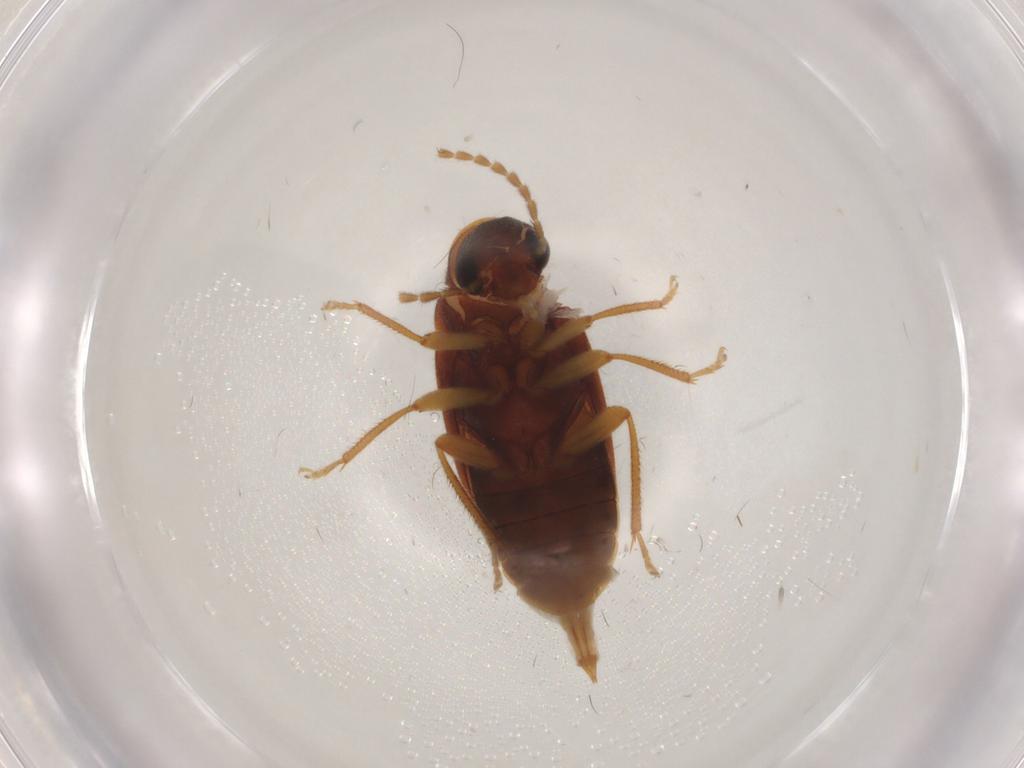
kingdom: Animalia
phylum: Arthropoda
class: Insecta
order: Coleoptera
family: Ptilodactylidae
